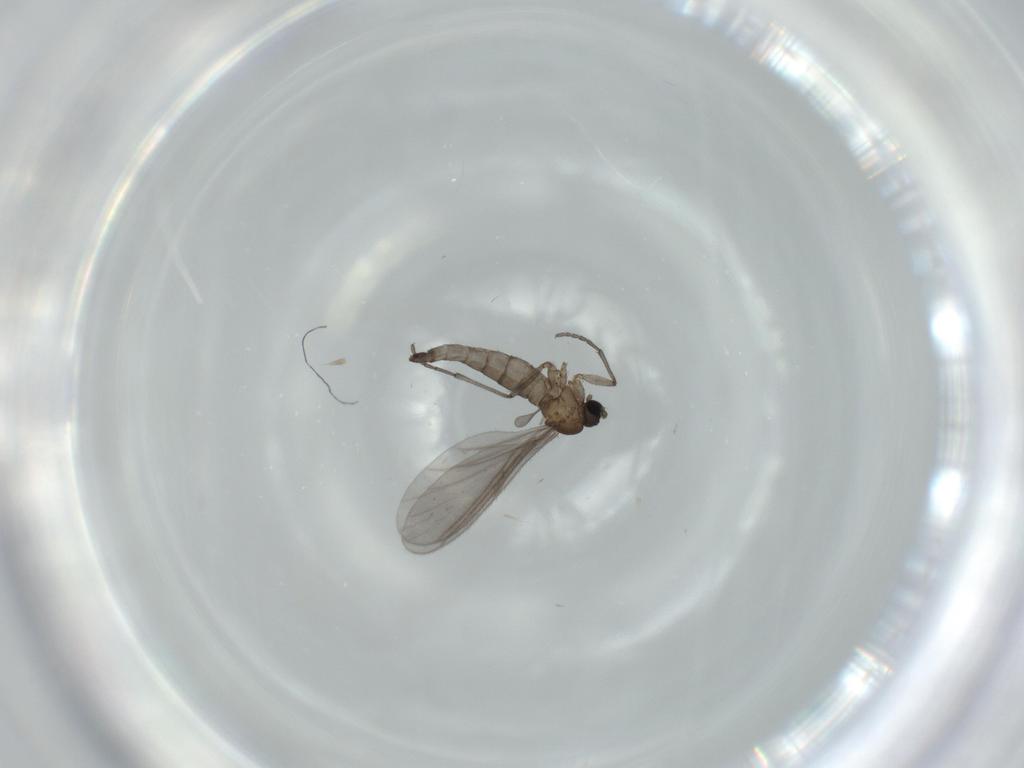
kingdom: Animalia
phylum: Arthropoda
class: Insecta
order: Diptera
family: Sciaridae
